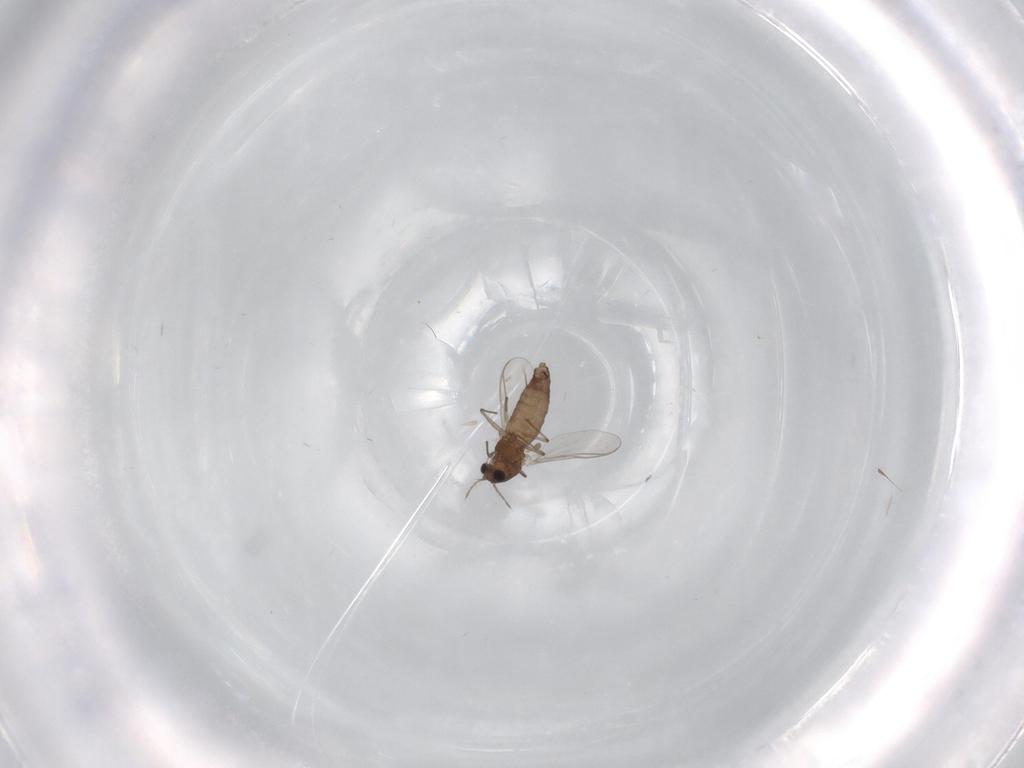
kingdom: Animalia
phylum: Arthropoda
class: Insecta
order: Diptera
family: Chironomidae
